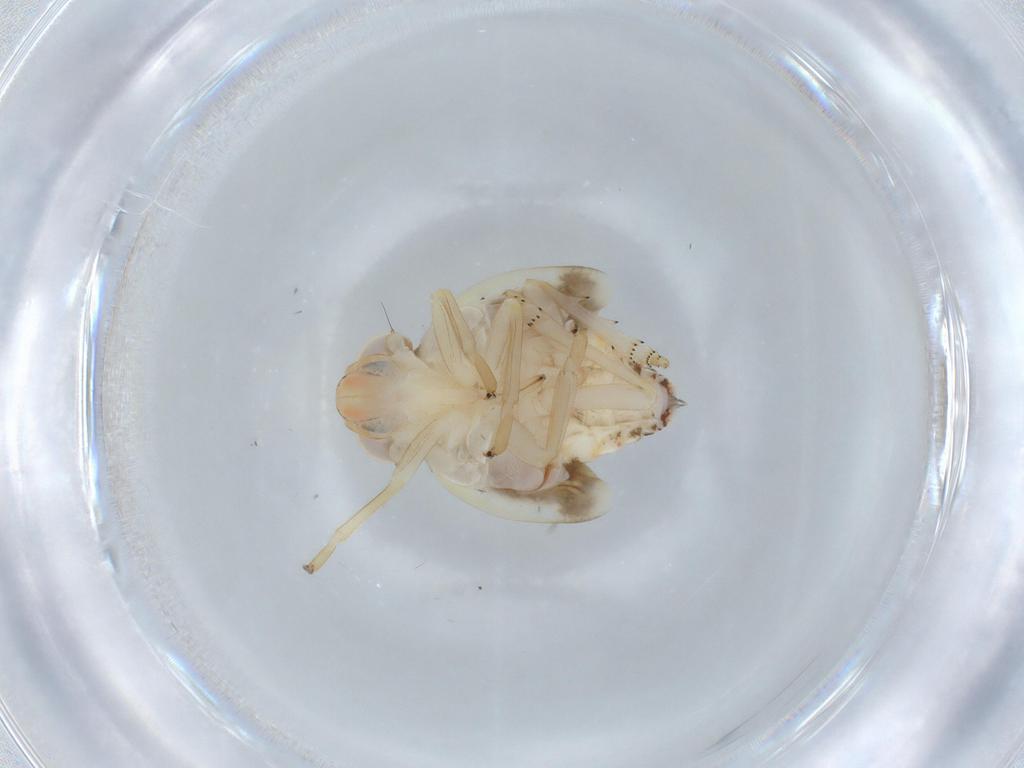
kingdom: Animalia
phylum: Arthropoda
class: Insecta
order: Hemiptera
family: Nogodinidae
